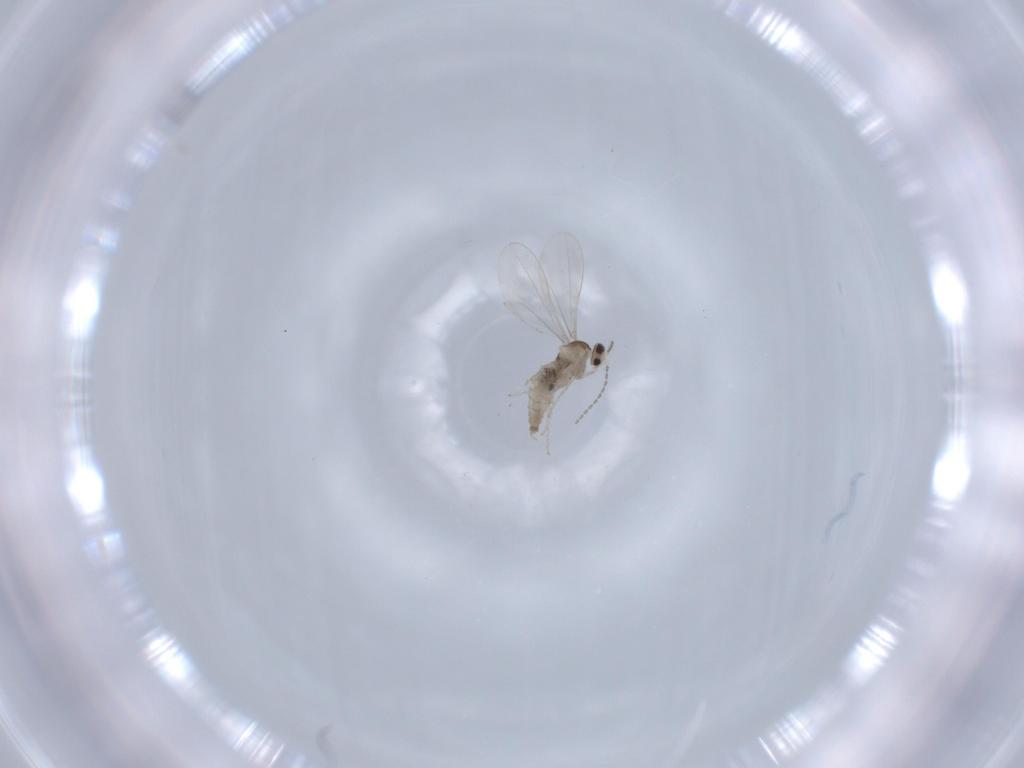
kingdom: Animalia
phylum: Arthropoda
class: Insecta
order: Diptera
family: Cecidomyiidae
